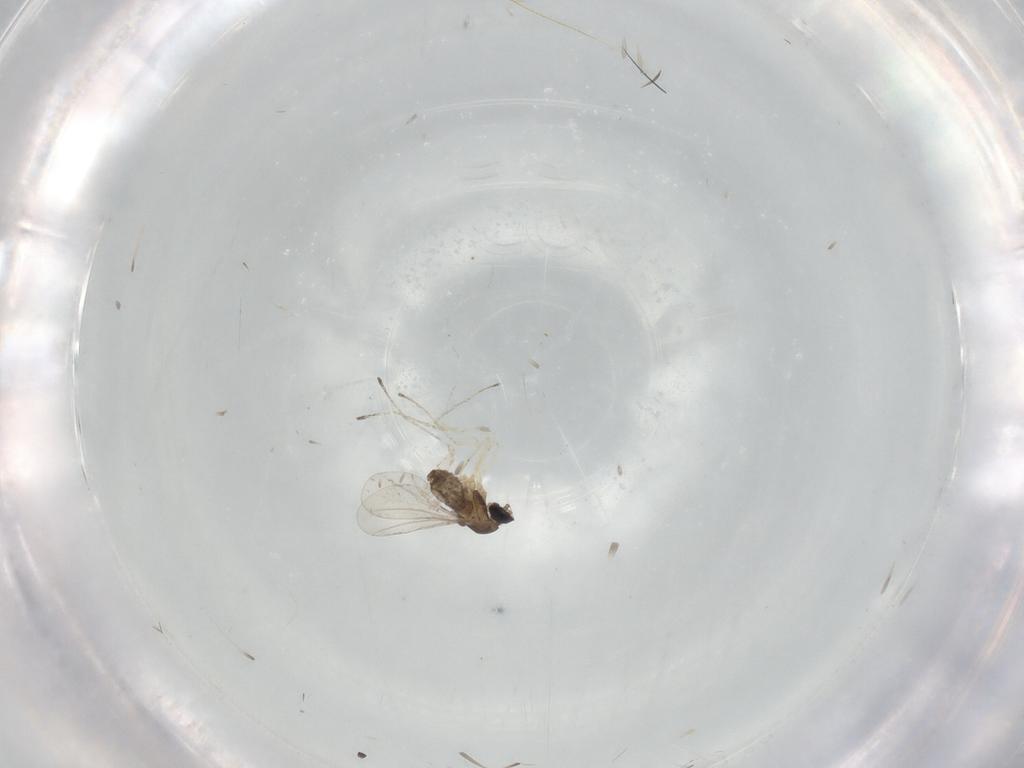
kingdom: Animalia
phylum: Arthropoda
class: Insecta
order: Diptera
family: Cecidomyiidae
